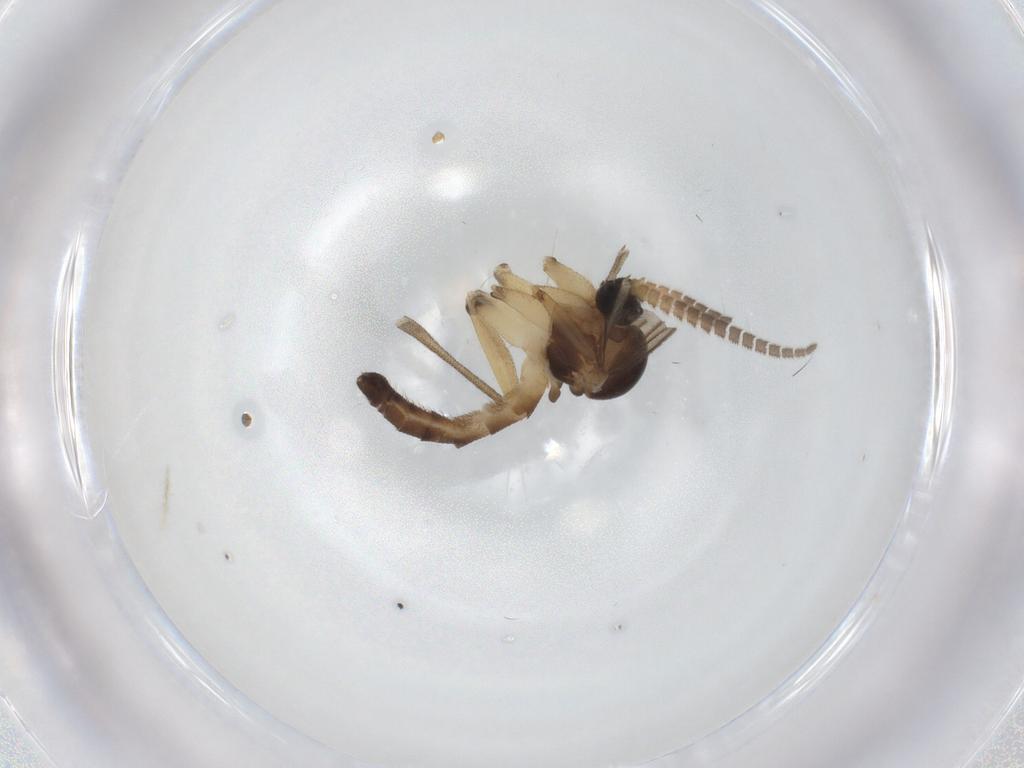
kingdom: Animalia
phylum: Arthropoda
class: Insecta
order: Diptera
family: Mycetophilidae
